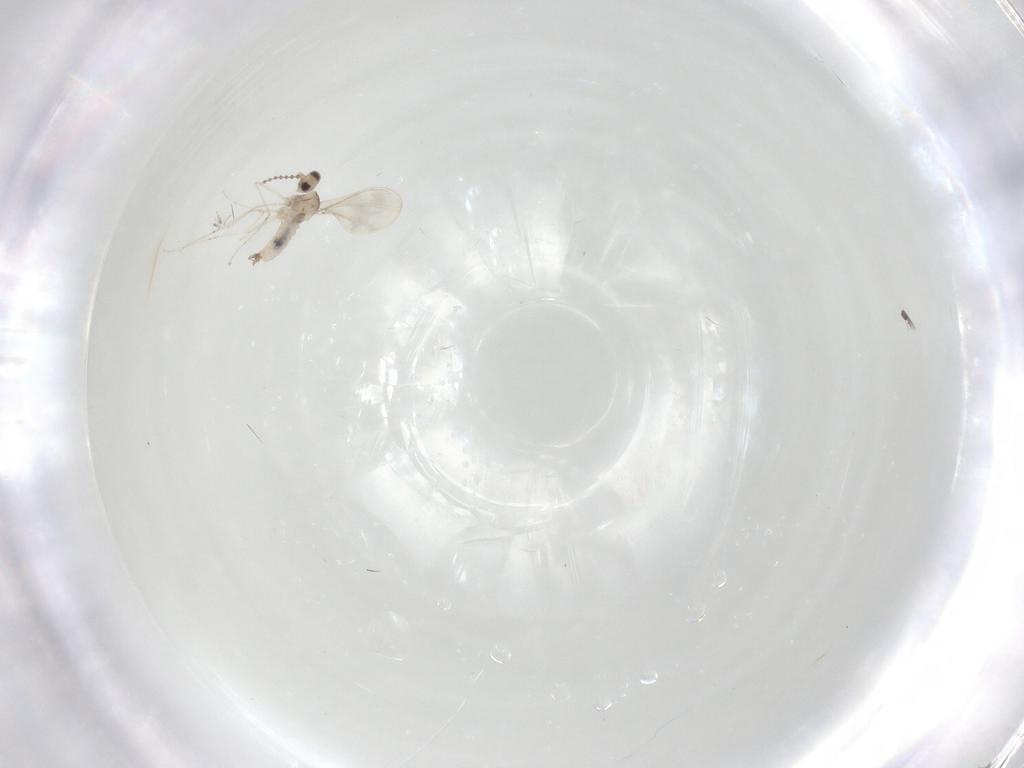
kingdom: Animalia
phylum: Arthropoda
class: Insecta
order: Diptera
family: Cecidomyiidae
